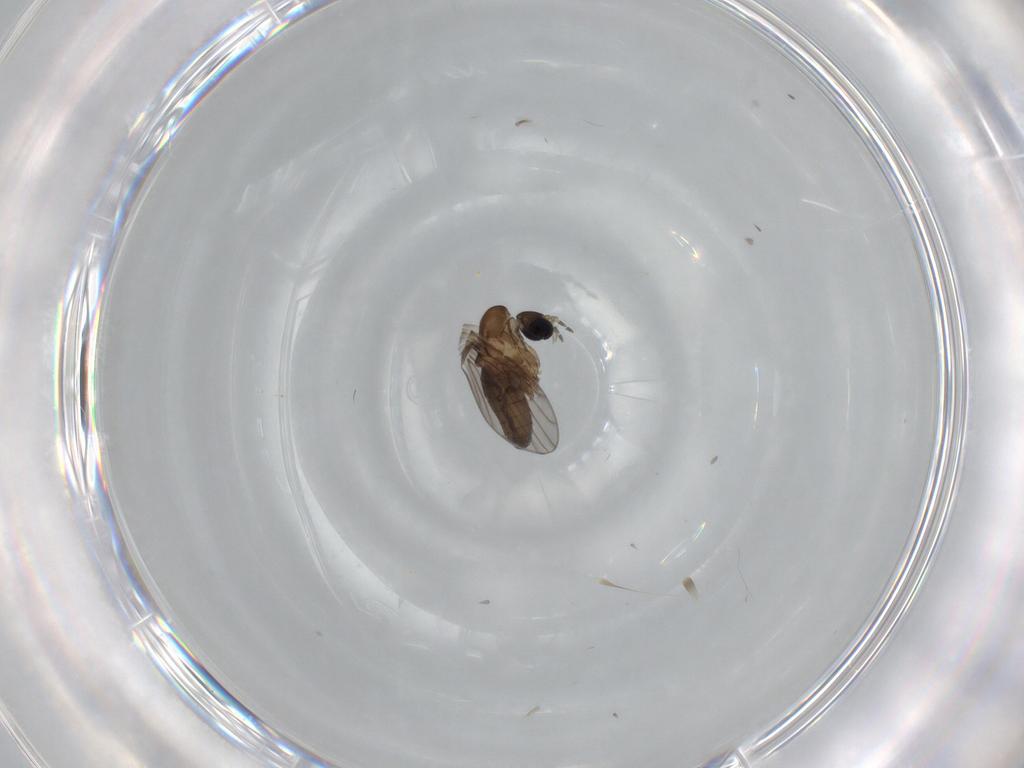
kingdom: Animalia
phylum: Arthropoda
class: Insecta
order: Diptera
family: Psychodidae
